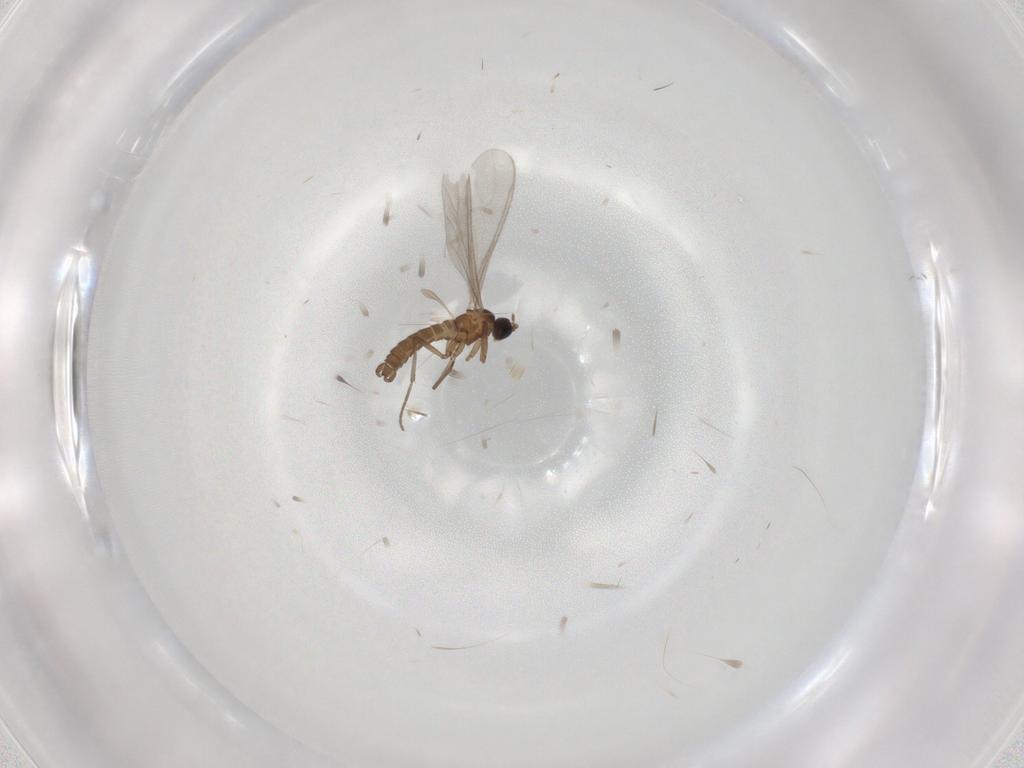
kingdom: Animalia
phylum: Arthropoda
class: Insecta
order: Diptera
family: Sciaridae
